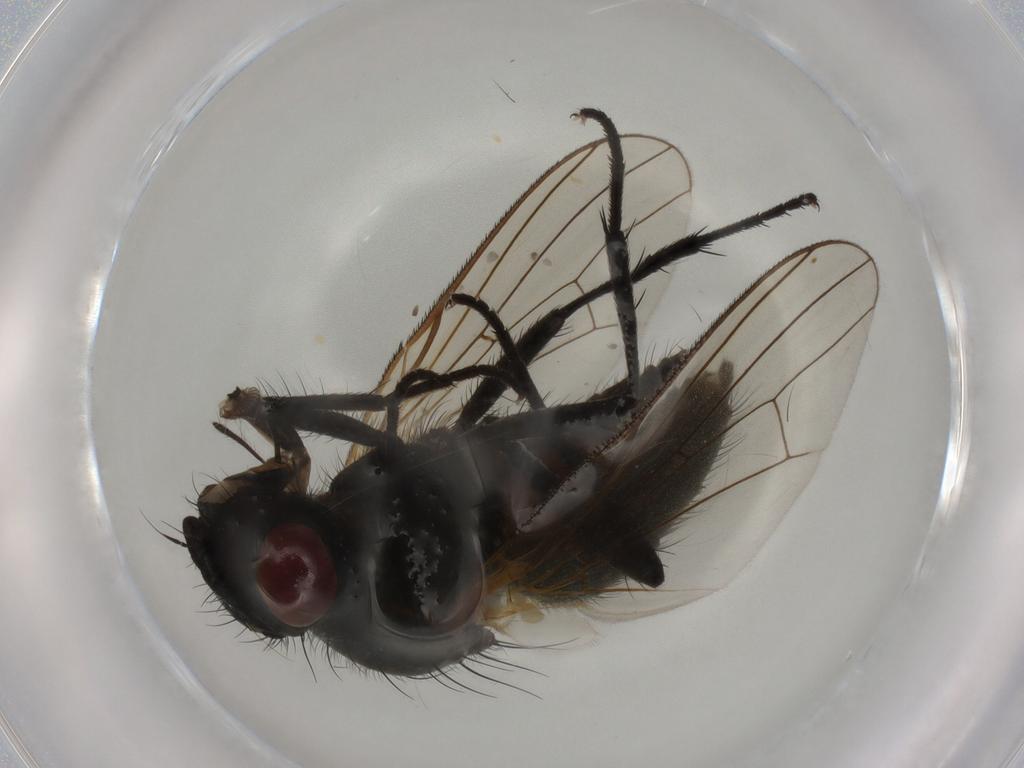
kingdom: Animalia
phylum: Arthropoda
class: Insecta
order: Diptera
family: Anthomyiidae
